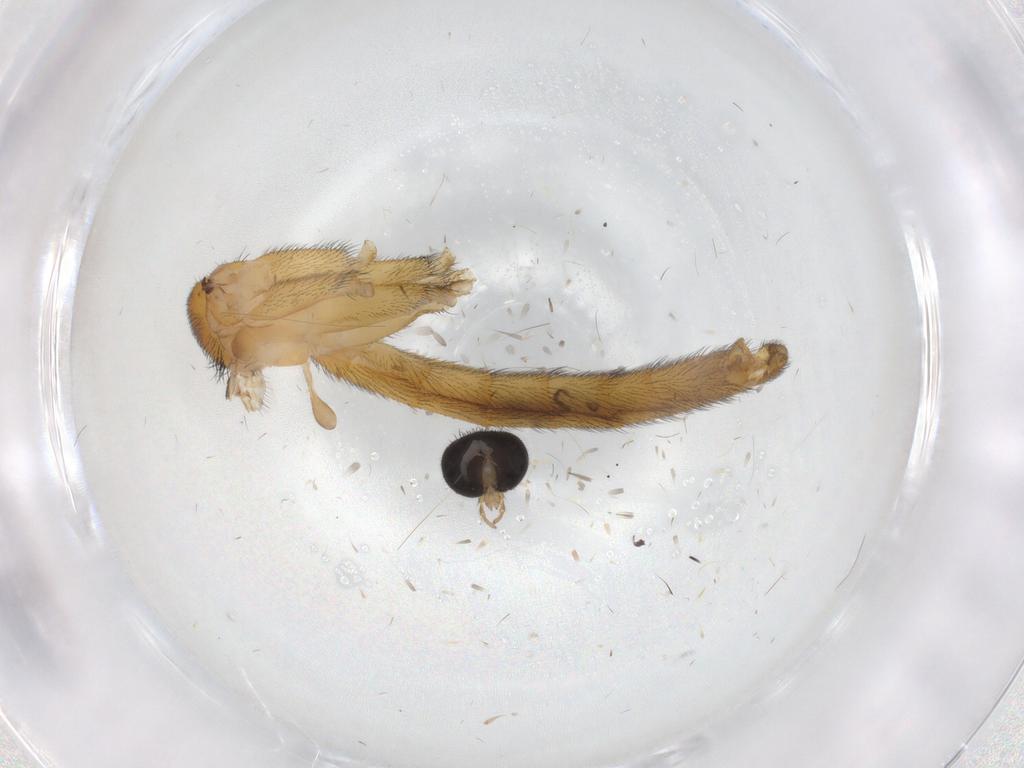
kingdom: Animalia
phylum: Arthropoda
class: Insecta
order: Diptera
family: Ceratopogonidae
